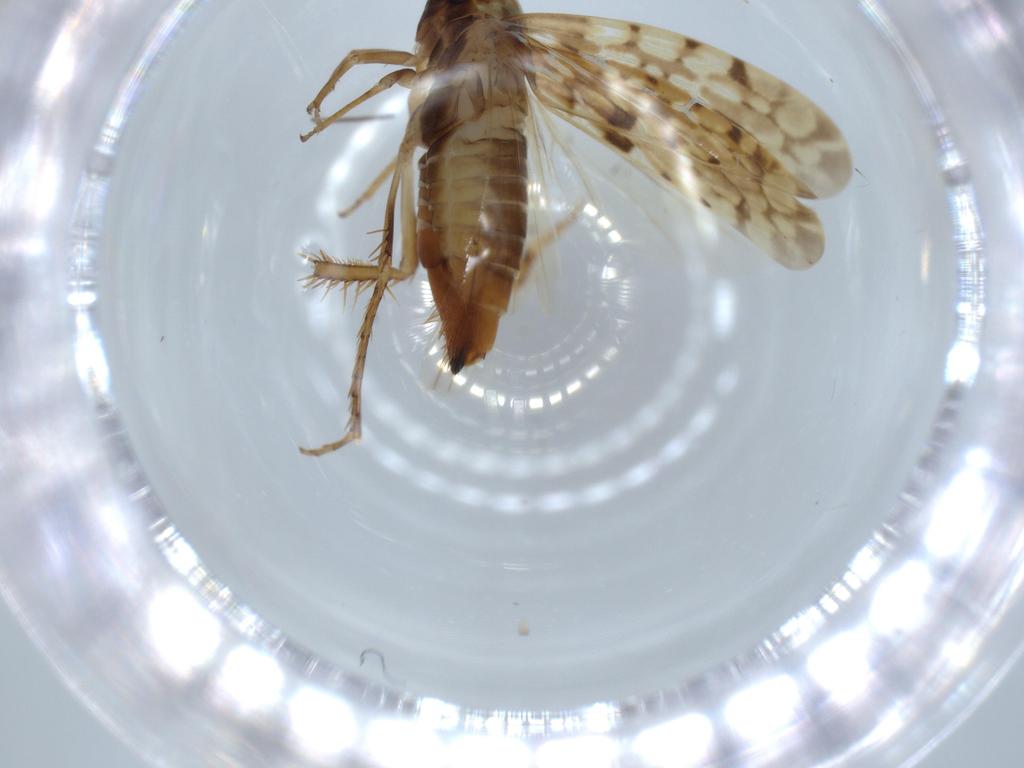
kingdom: Animalia
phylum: Arthropoda
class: Insecta
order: Hemiptera
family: Cicadellidae
